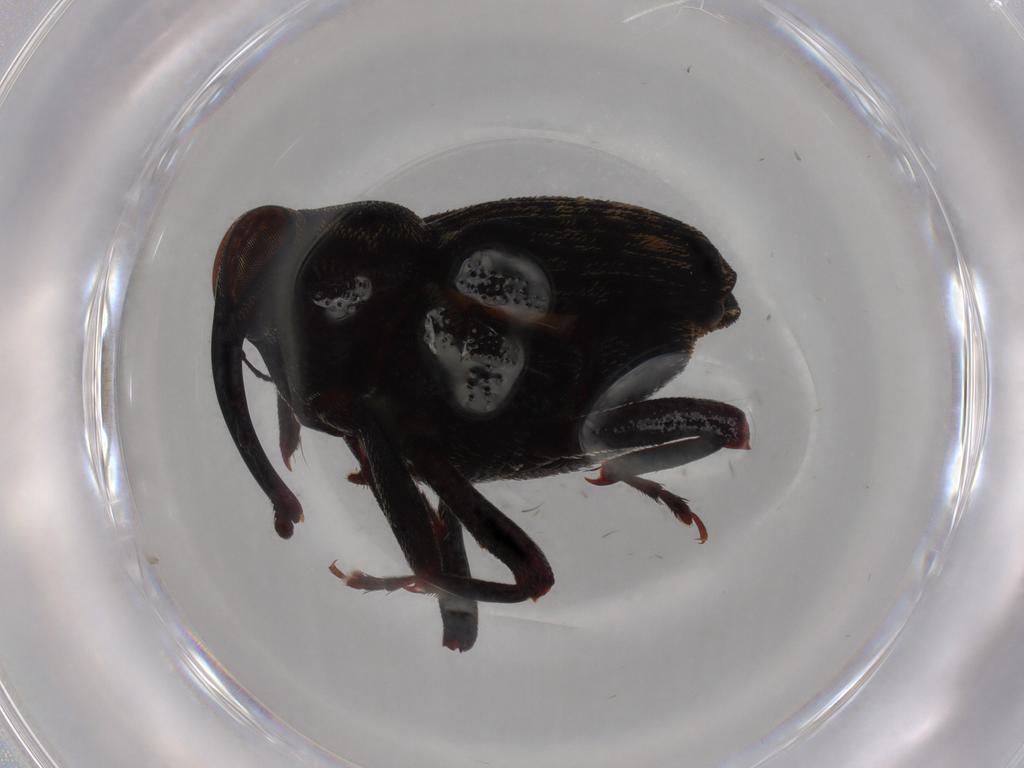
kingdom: Animalia
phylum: Arthropoda
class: Insecta
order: Coleoptera
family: Curculionidae
